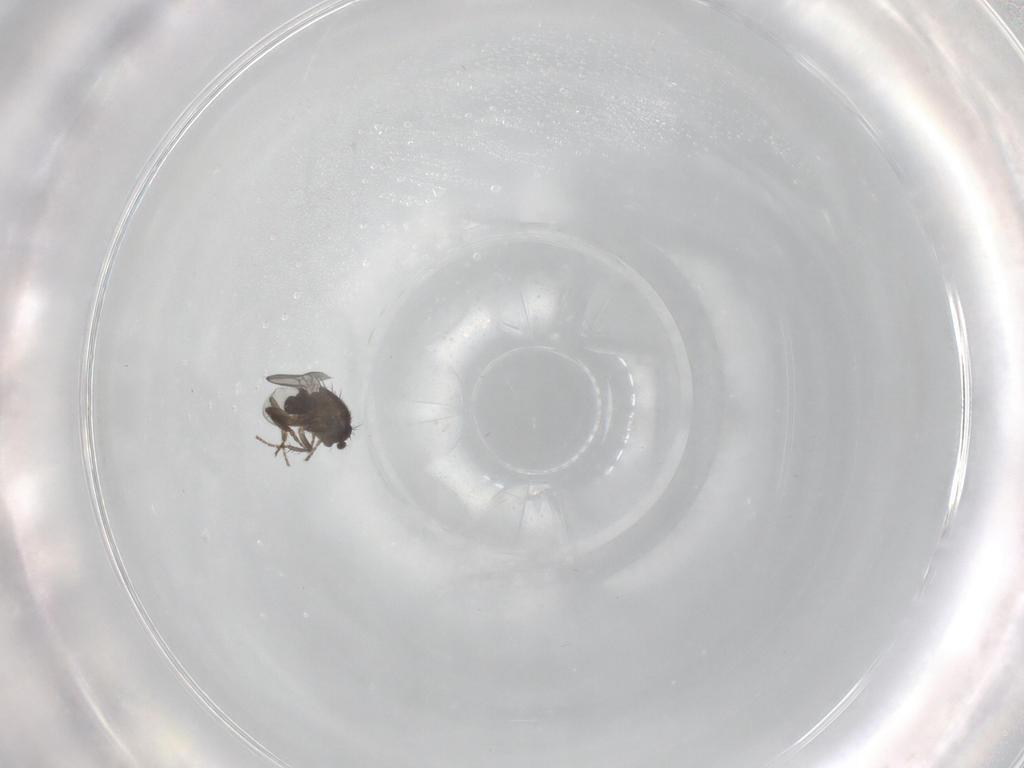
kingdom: Animalia
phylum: Arthropoda
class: Insecta
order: Diptera
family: Sphaeroceridae
